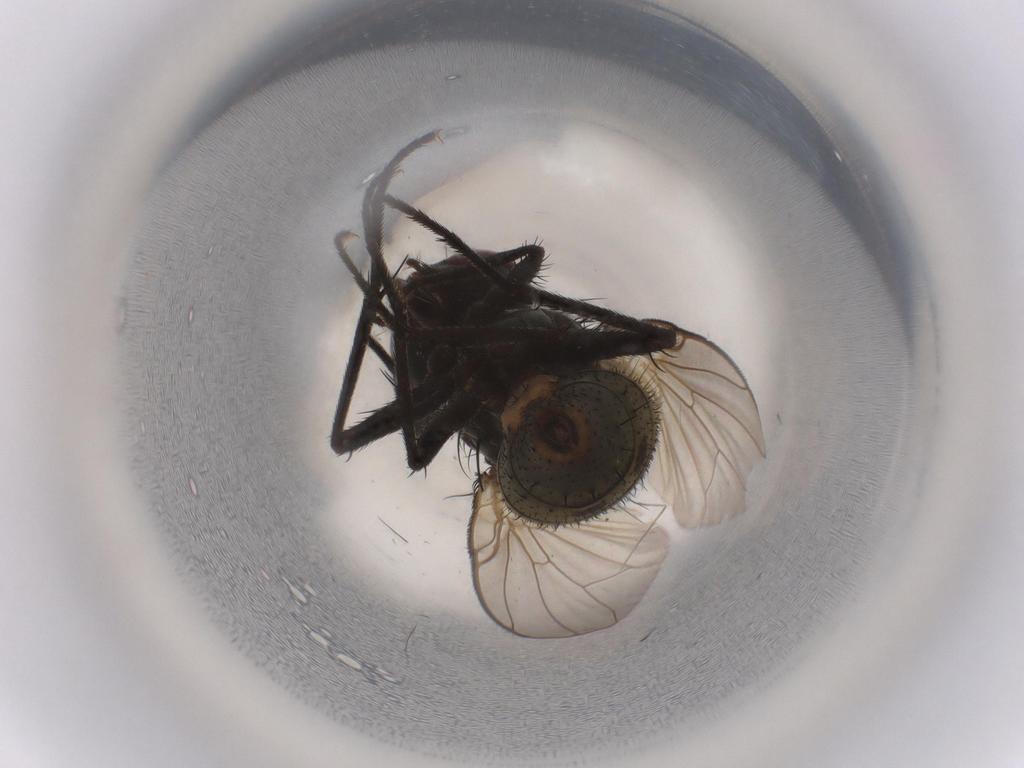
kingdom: Animalia
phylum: Arthropoda
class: Insecta
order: Diptera
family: Muscidae
